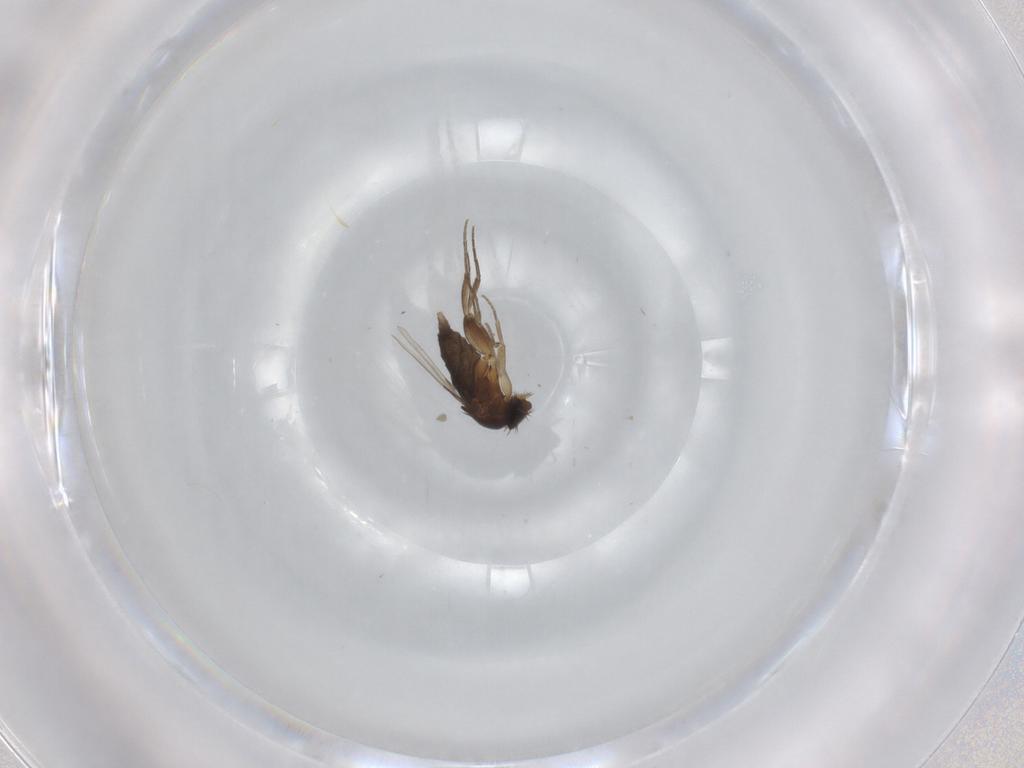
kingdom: Animalia
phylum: Arthropoda
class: Insecta
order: Diptera
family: Phoridae
